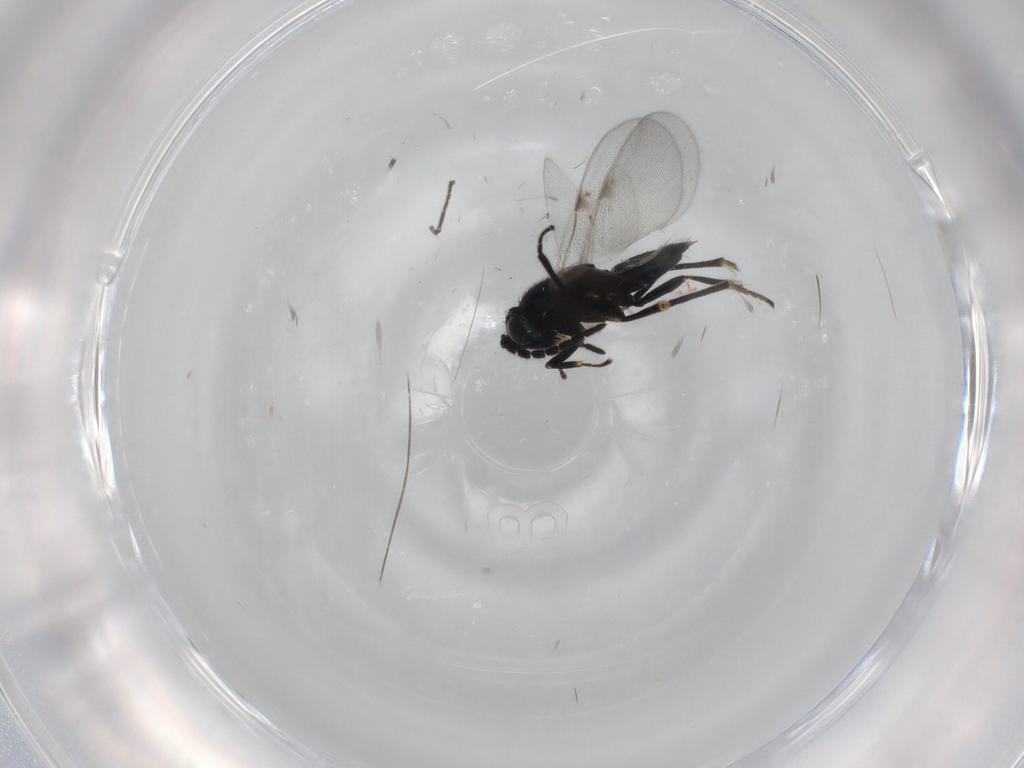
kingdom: Animalia
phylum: Arthropoda
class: Insecta
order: Hymenoptera
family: Encyrtidae
